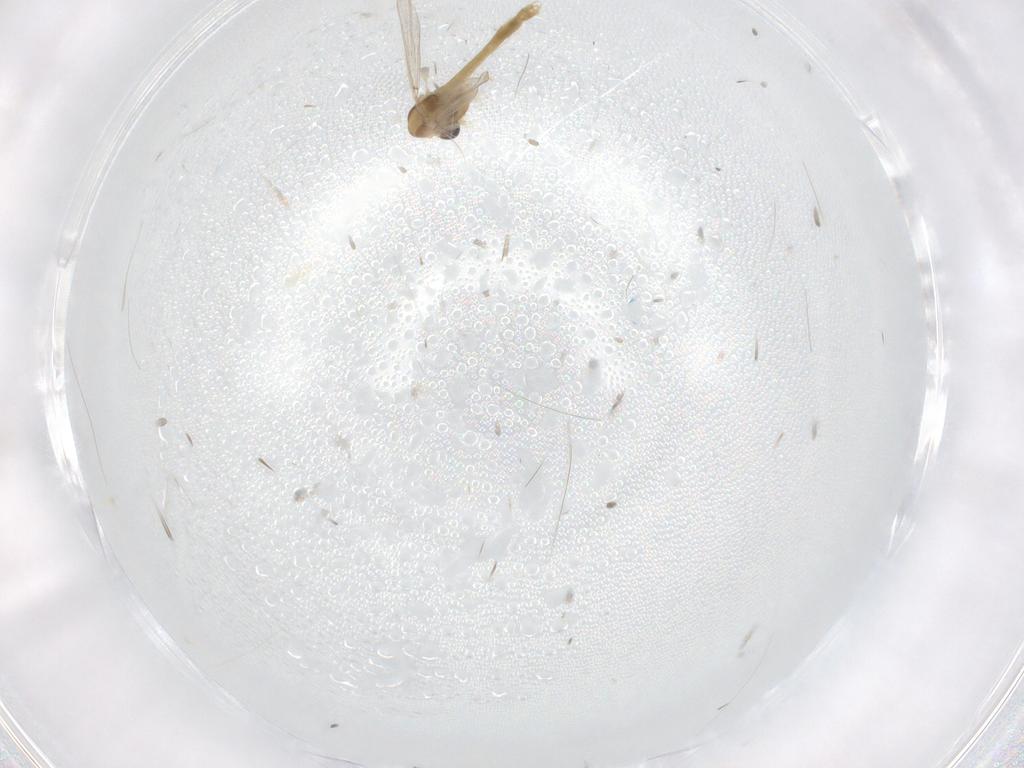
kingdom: Animalia
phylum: Arthropoda
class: Insecta
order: Diptera
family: Chironomidae
